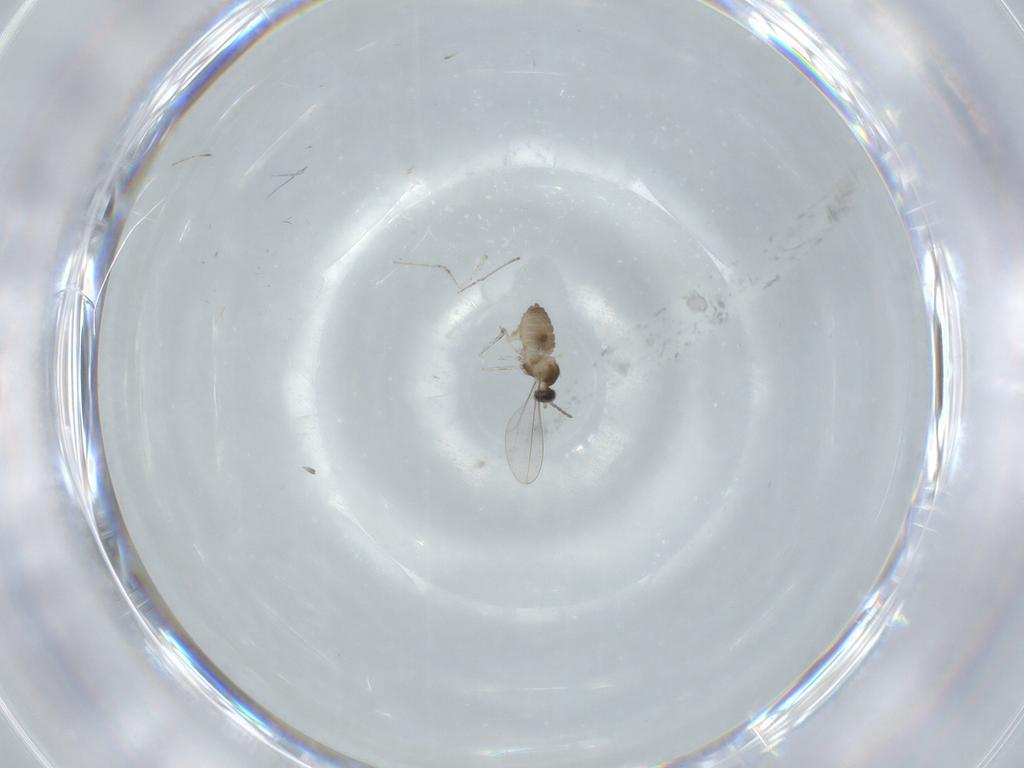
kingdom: Animalia
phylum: Arthropoda
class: Insecta
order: Diptera
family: Cecidomyiidae
